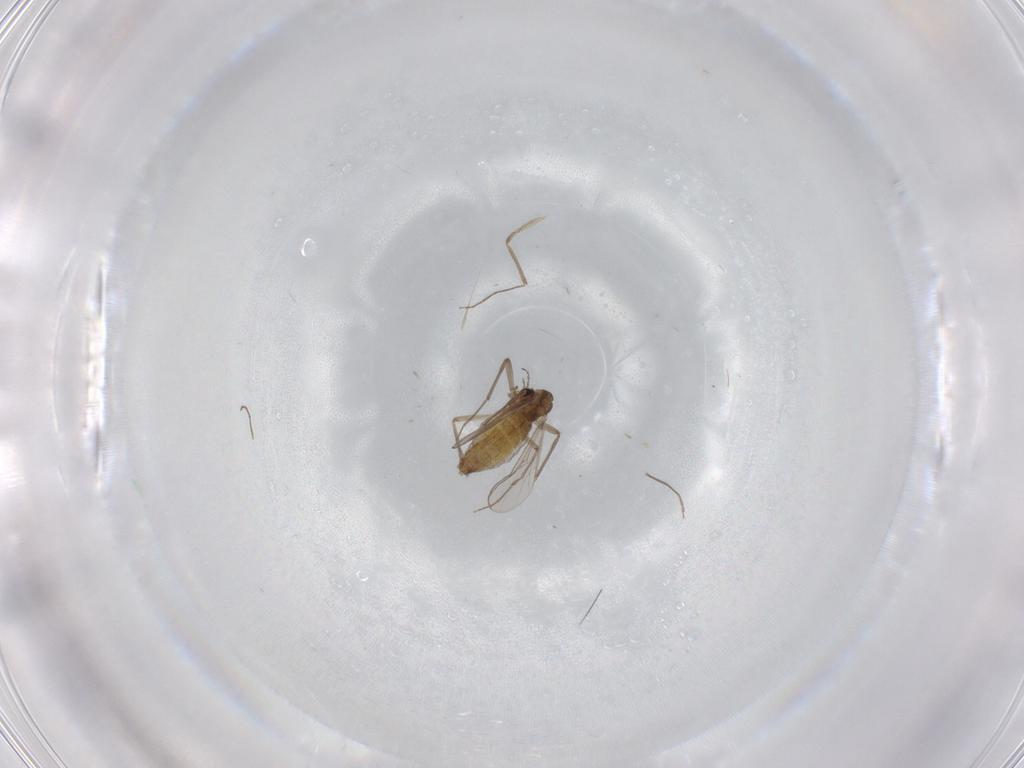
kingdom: Animalia
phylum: Arthropoda
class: Insecta
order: Diptera
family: Chironomidae
